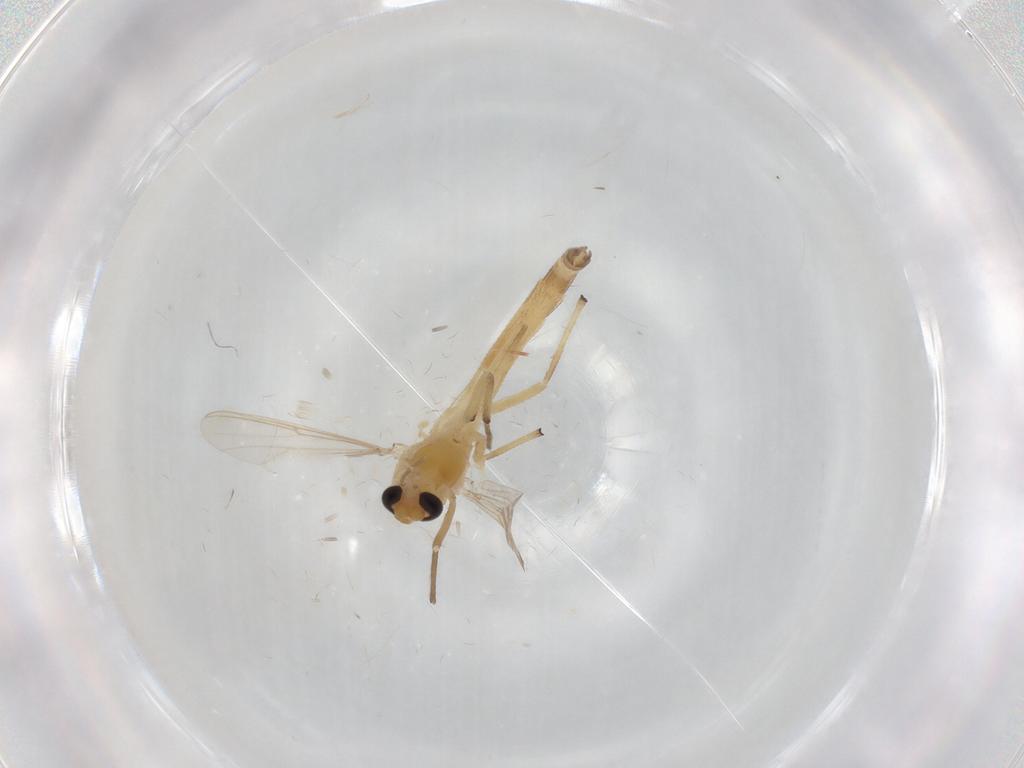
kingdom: Animalia
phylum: Arthropoda
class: Insecta
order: Diptera
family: Chironomidae
